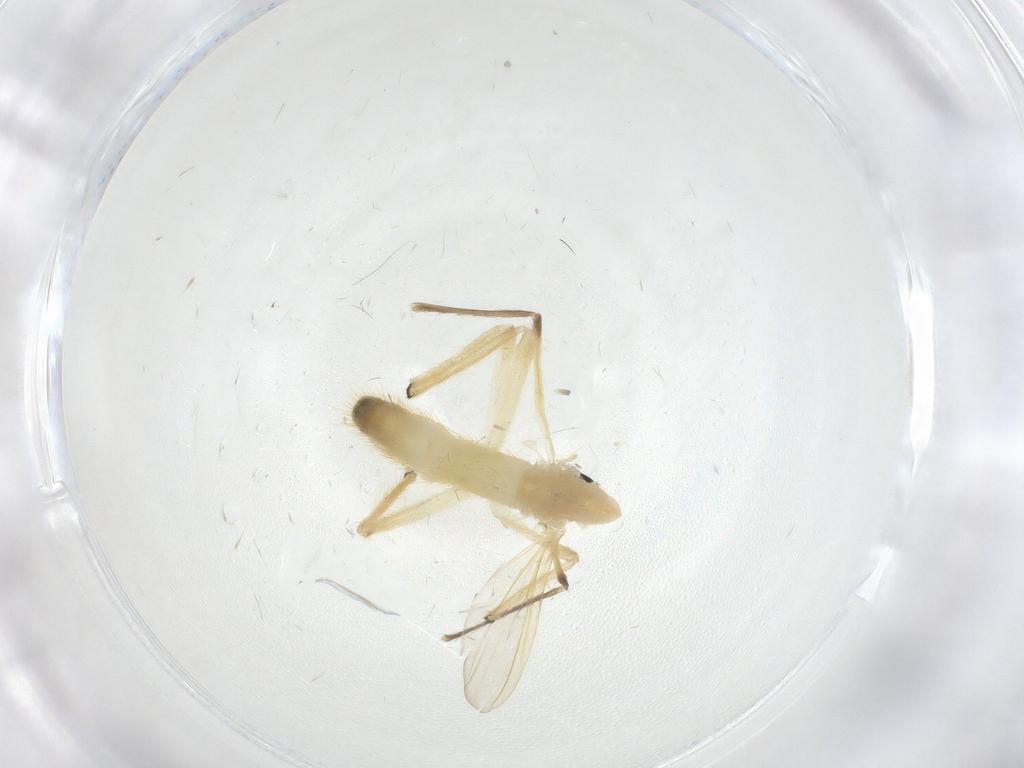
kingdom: Animalia
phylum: Arthropoda
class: Insecta
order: Diptera
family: Chironomidae
